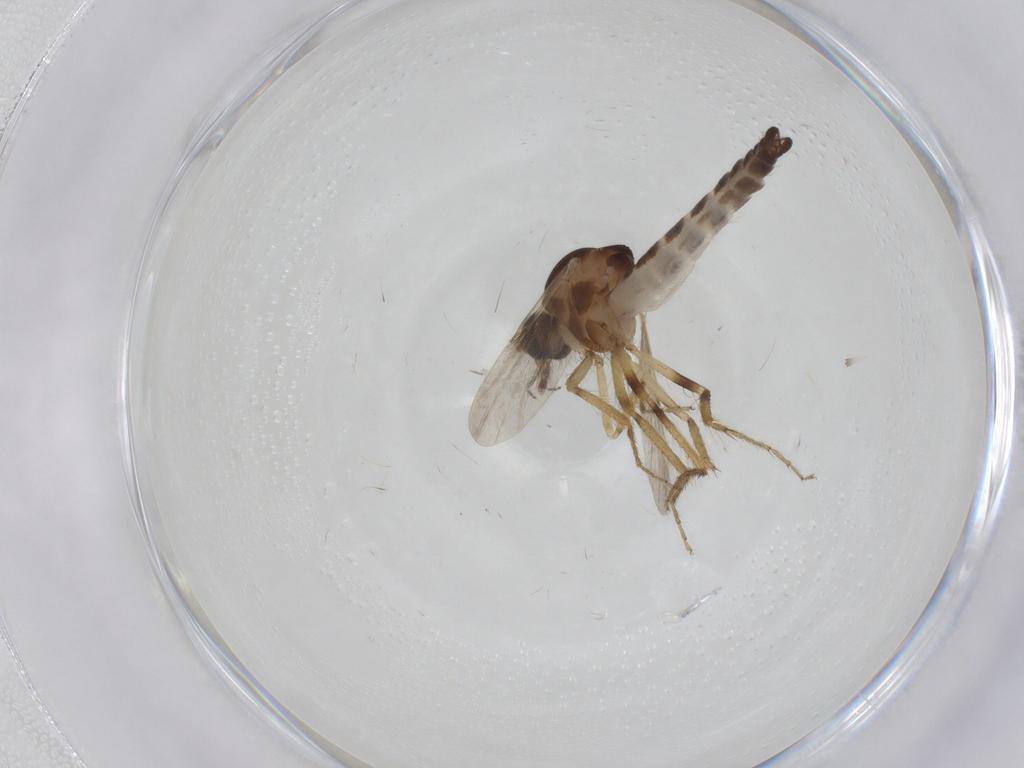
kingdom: Animalia
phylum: Arthropoda
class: Insecta
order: Diptera
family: Hybotidae
